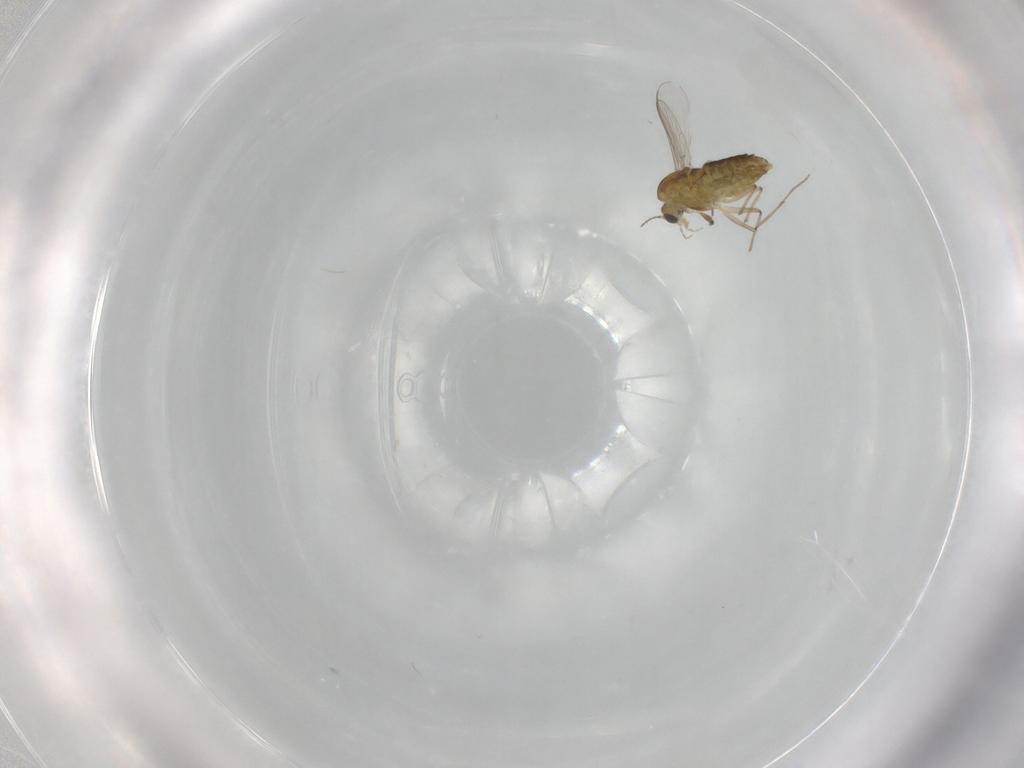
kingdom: Animalia
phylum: Arthropoda
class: Insecta
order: Diptera
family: Chironomidae
